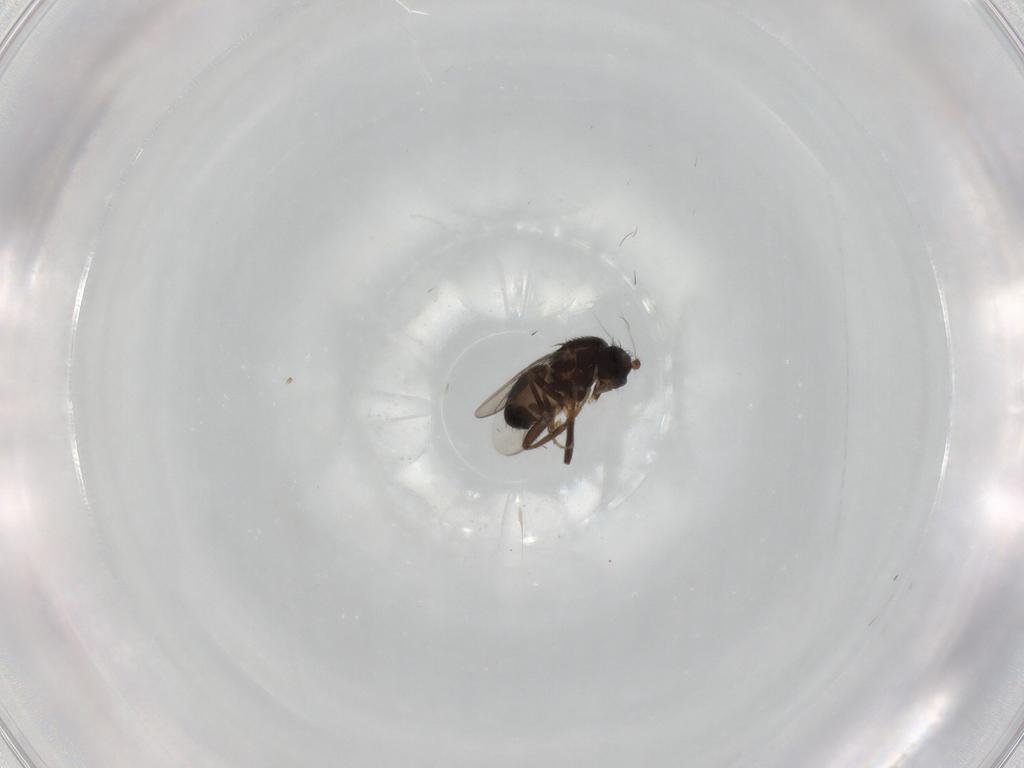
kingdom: Animalia
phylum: Arthropoda
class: Insecta
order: Diptera
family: Sphaeroceridae
